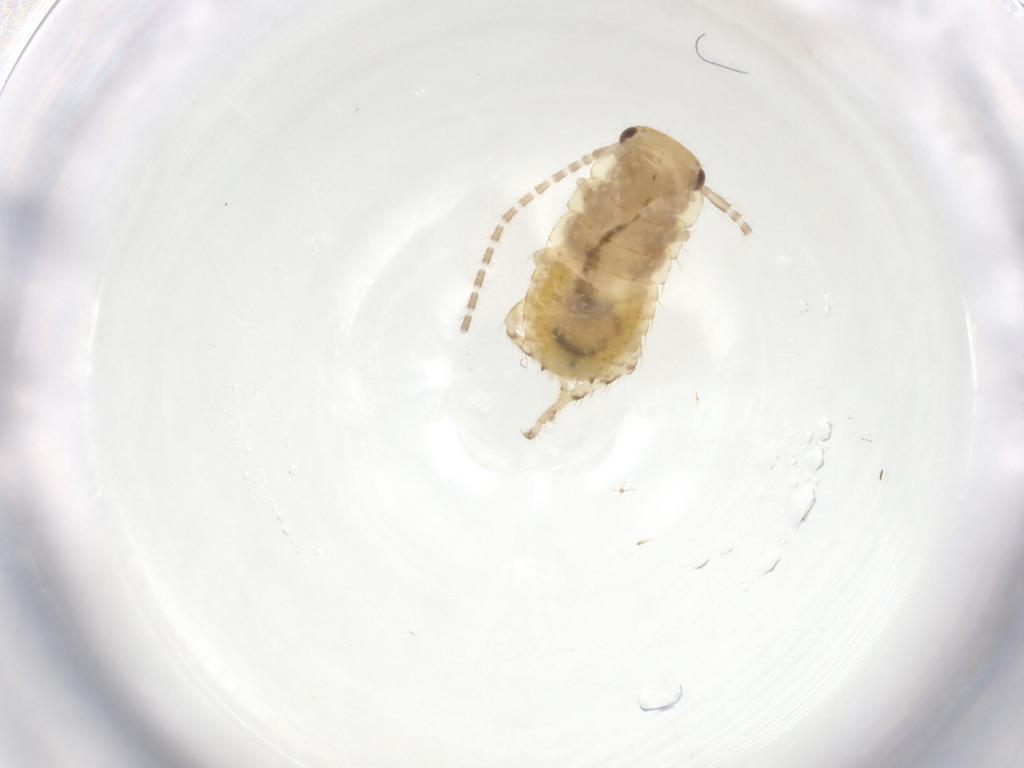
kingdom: Animalia
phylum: Arthropoda
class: Insecta
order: Blattodea
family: Ectobiidae
